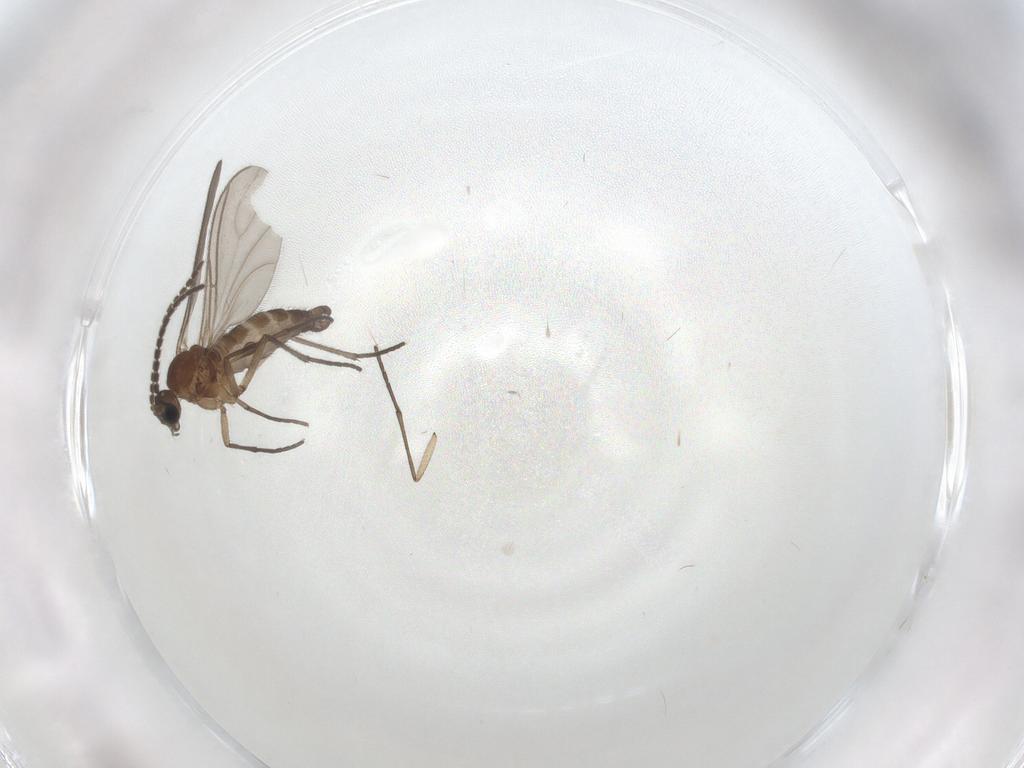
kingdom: Animalia
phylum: Arthropoda
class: Insecta
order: Diptera
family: Sciaridae
